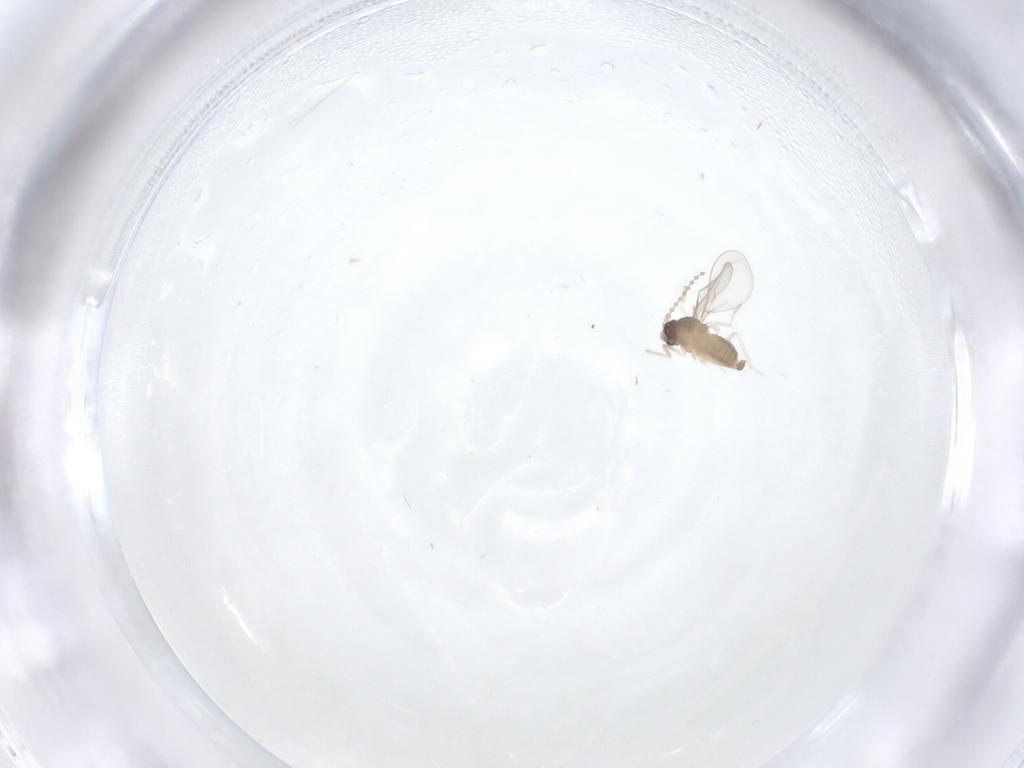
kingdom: Animalia
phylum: Arthropoda
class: Insecta
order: Diptera
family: Cecidomyiidae
